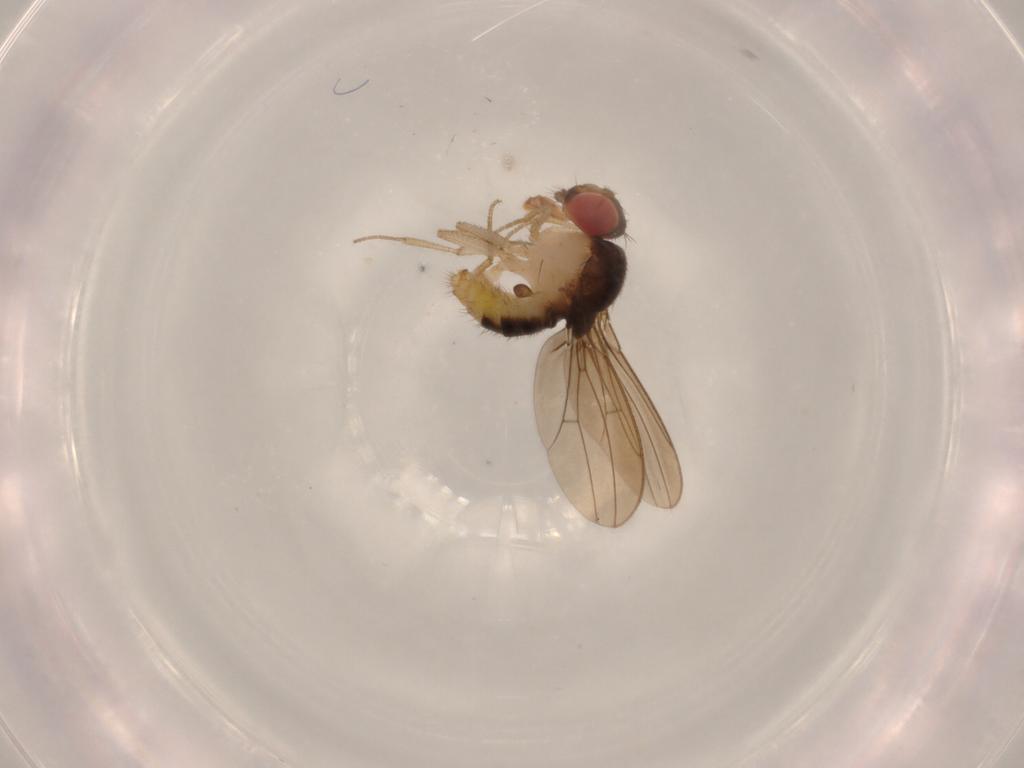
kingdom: Animalia
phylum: Arthropoda
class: Insecta
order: Diptera
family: Drosophilidae
